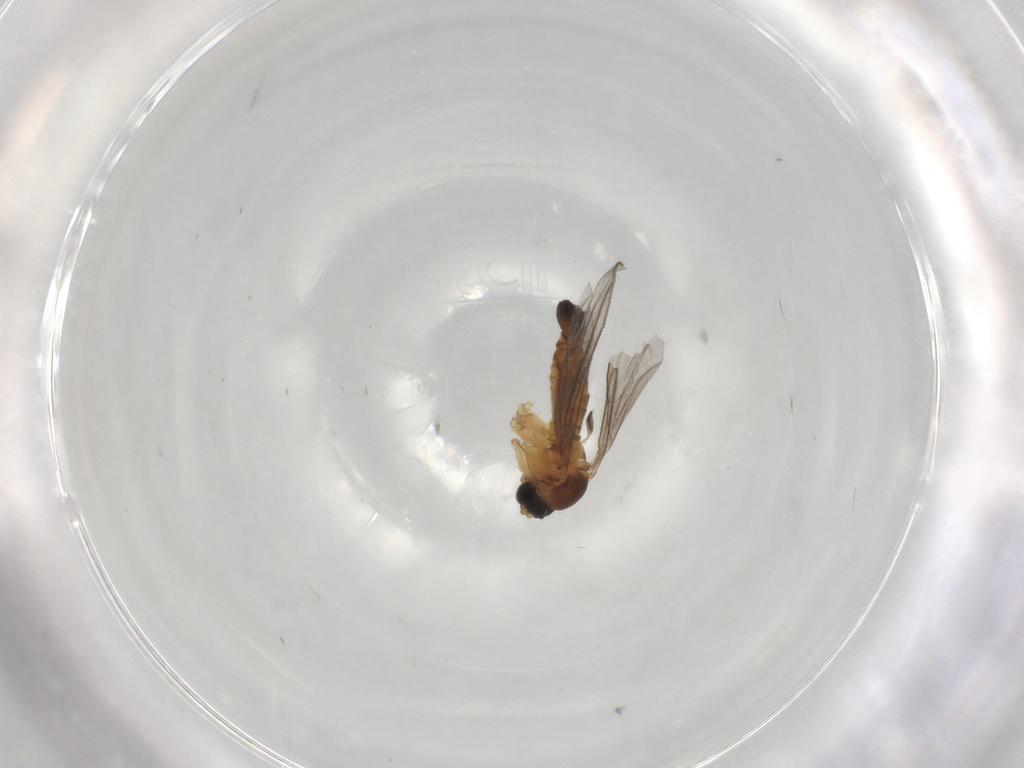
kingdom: Animalia
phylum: Arthropoda
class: Insecta
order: Diptera
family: Sciaridae
